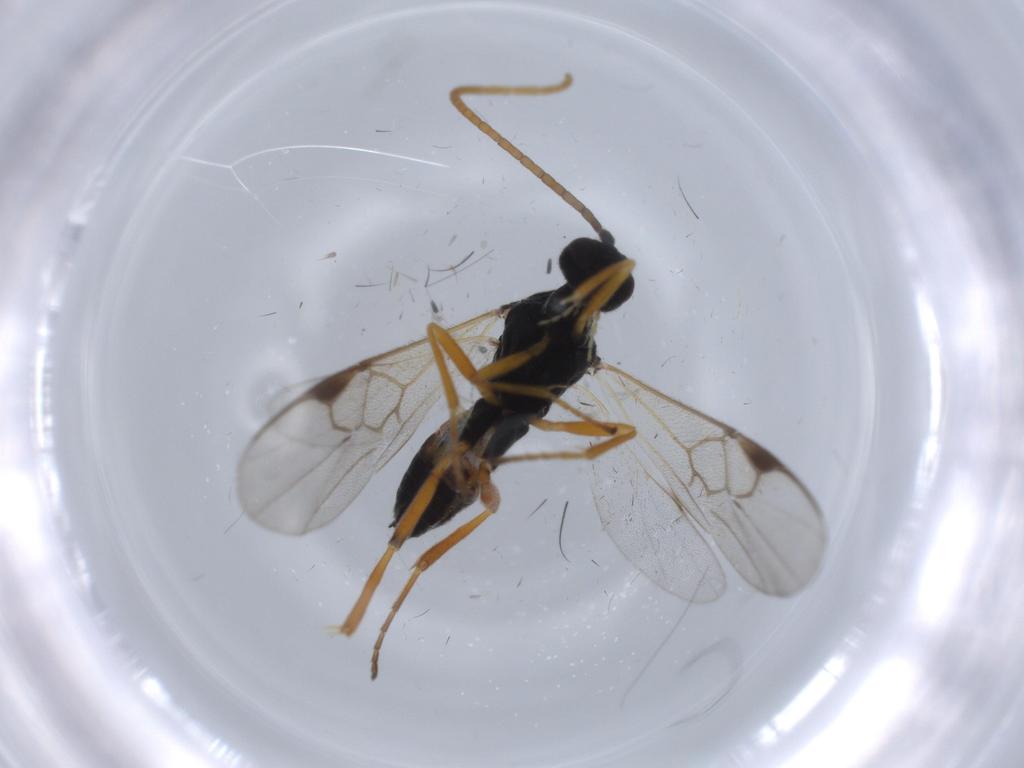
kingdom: Animalia
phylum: Arthropoda
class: Insecta
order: Hymenoptera
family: Braconidae
